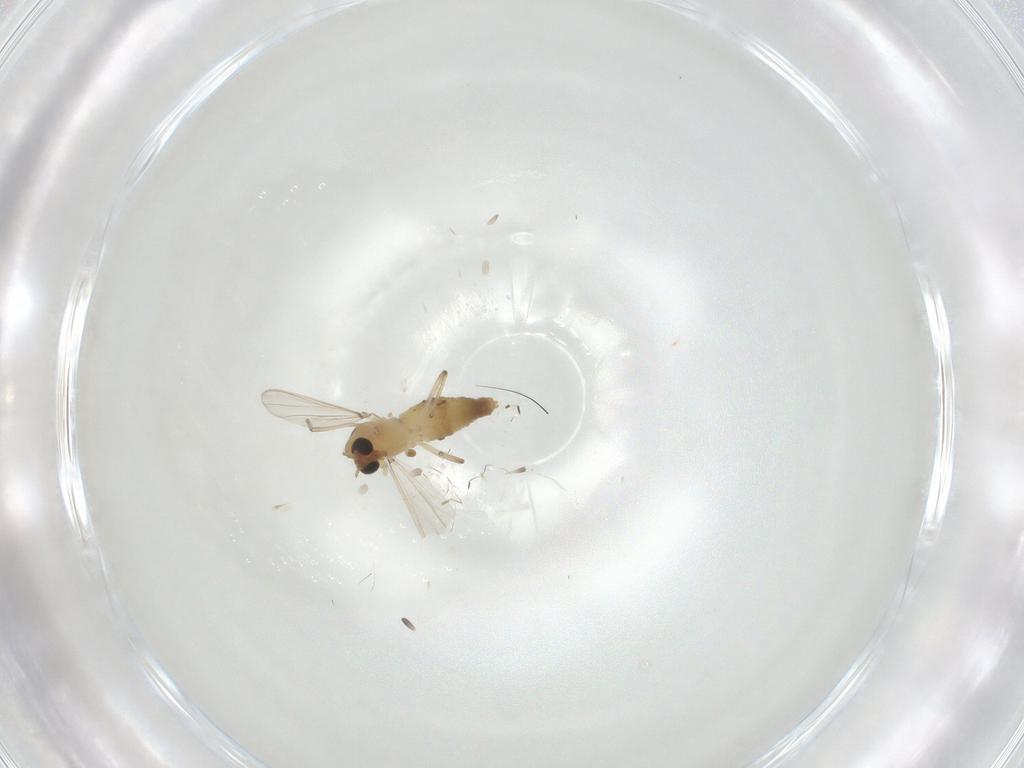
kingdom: Animalia
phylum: Arthropoda
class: Insecta
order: Diptera
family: Chironomidae
